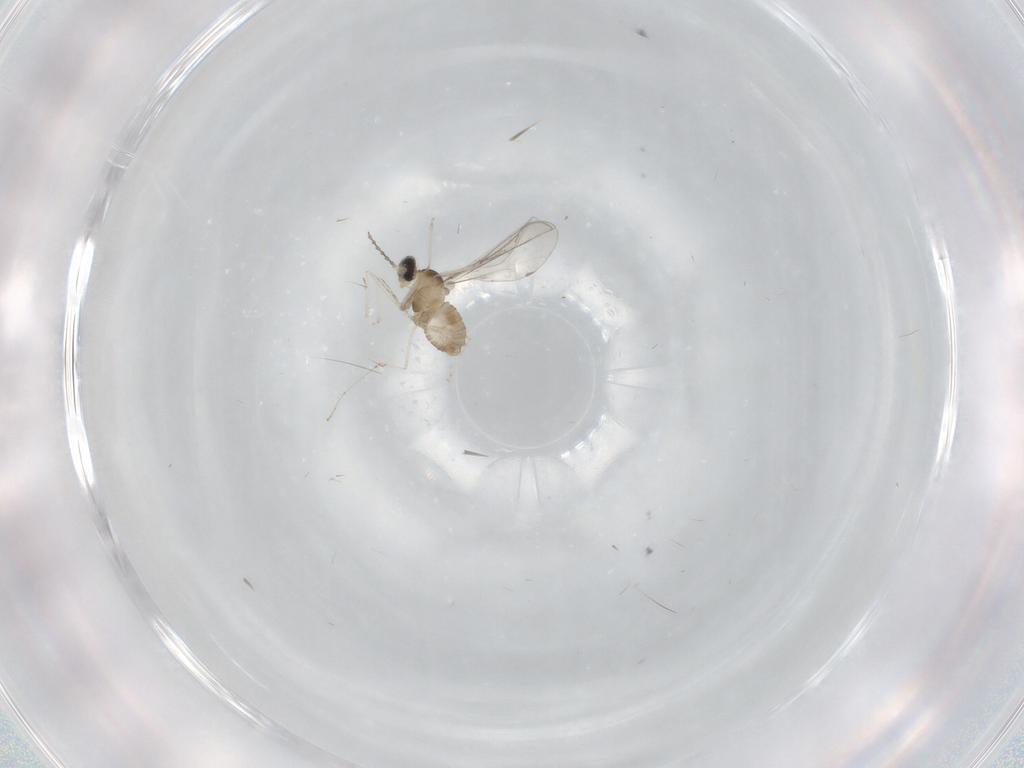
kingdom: Animalia
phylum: Arthropoda
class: Insecta
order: Diptera
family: Cecidomyiidae
